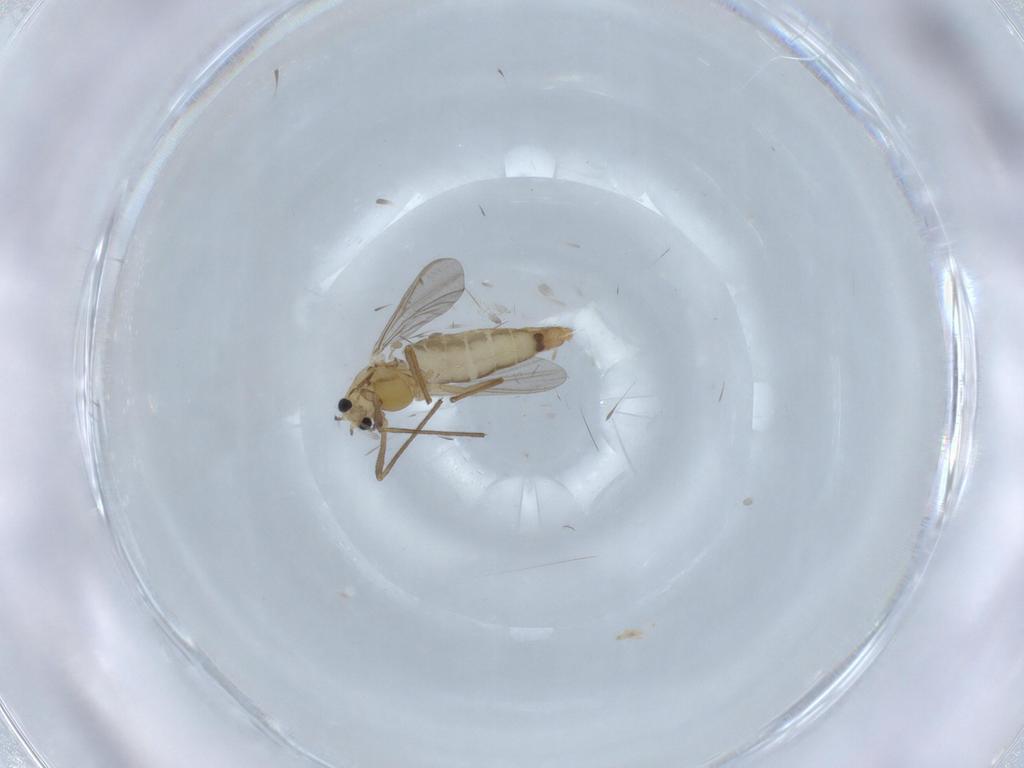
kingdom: Animalia
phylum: Arthropoda
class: Insecta
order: Diptera
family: Chironomidae
